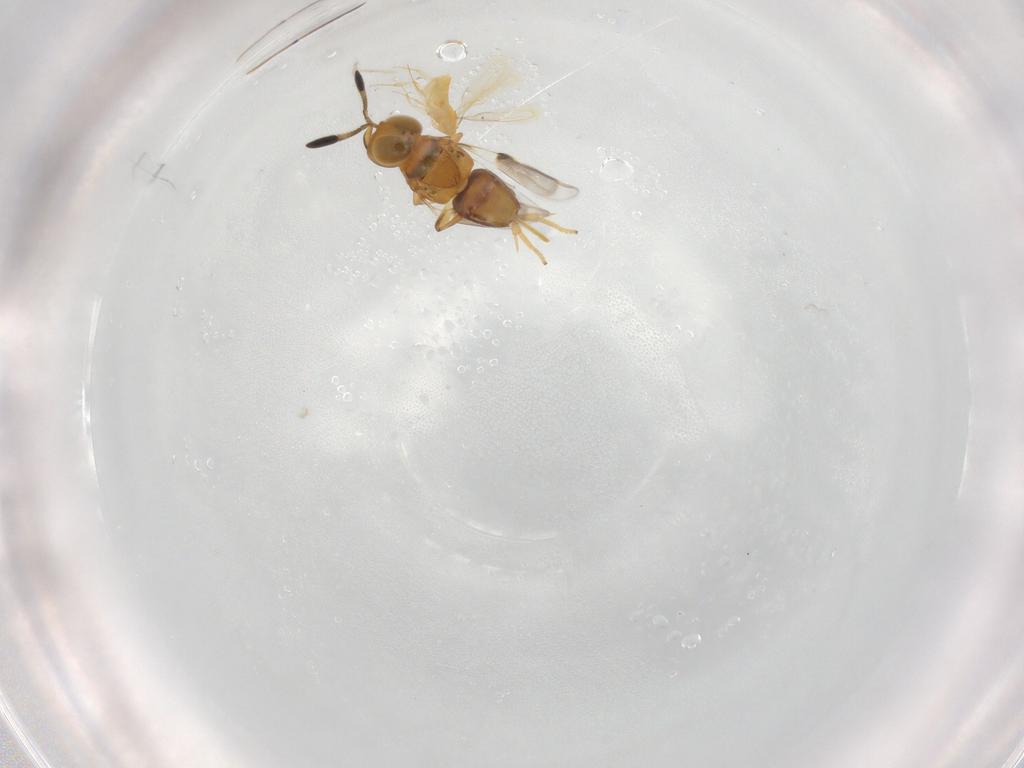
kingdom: Animalia
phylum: Arthropoda
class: Insecta
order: Hymenoptera
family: Encyrtidae
